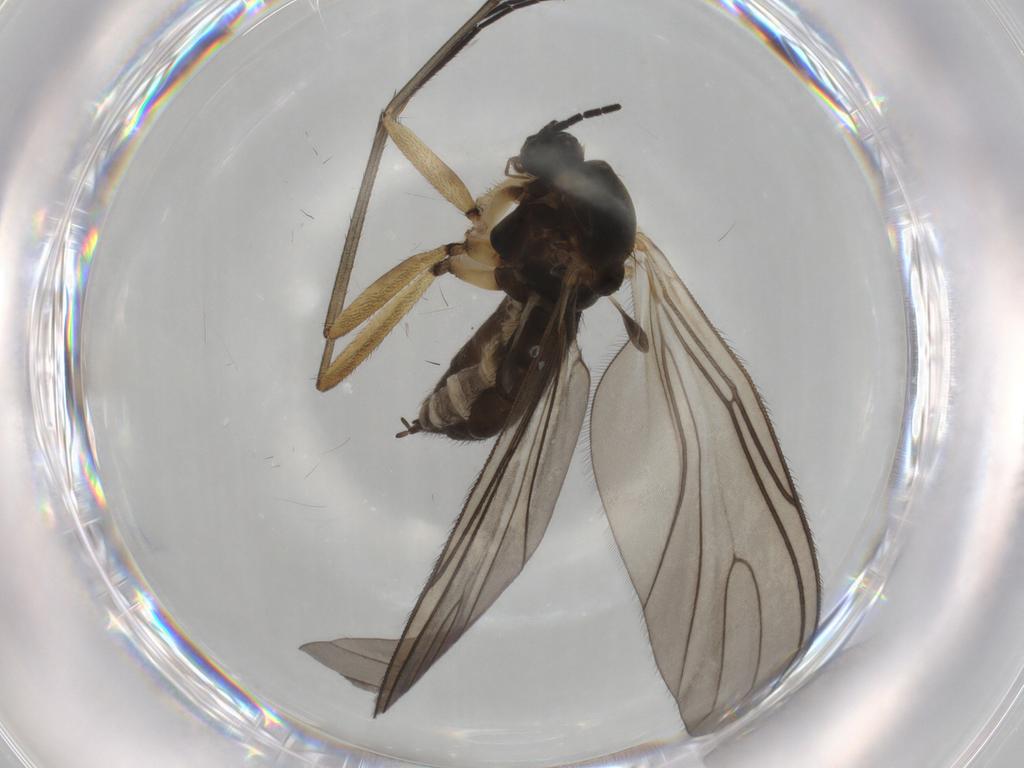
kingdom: Animalia
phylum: Arthropoda
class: Insecta
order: Diptera
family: Sciaridae
